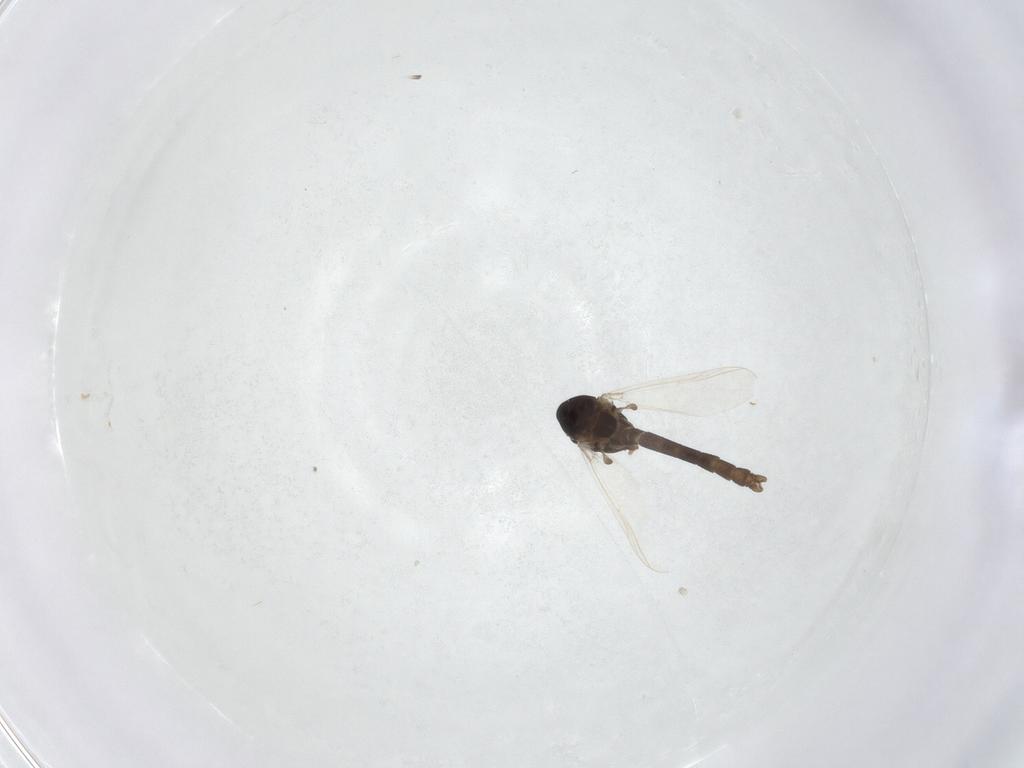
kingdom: Animalia
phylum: Arthropoda
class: Insecta
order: Diptera
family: Chironomidae
